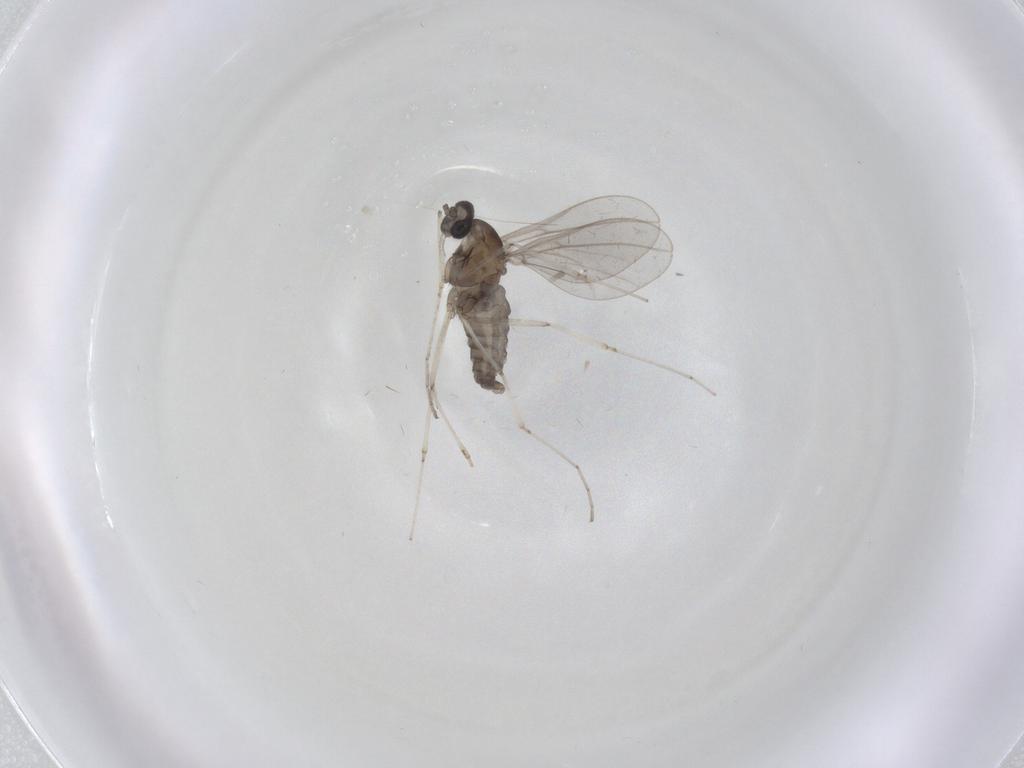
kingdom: Animalia
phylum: Arthropoda
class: Insecta
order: Diptera
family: Cecidomyiidae
